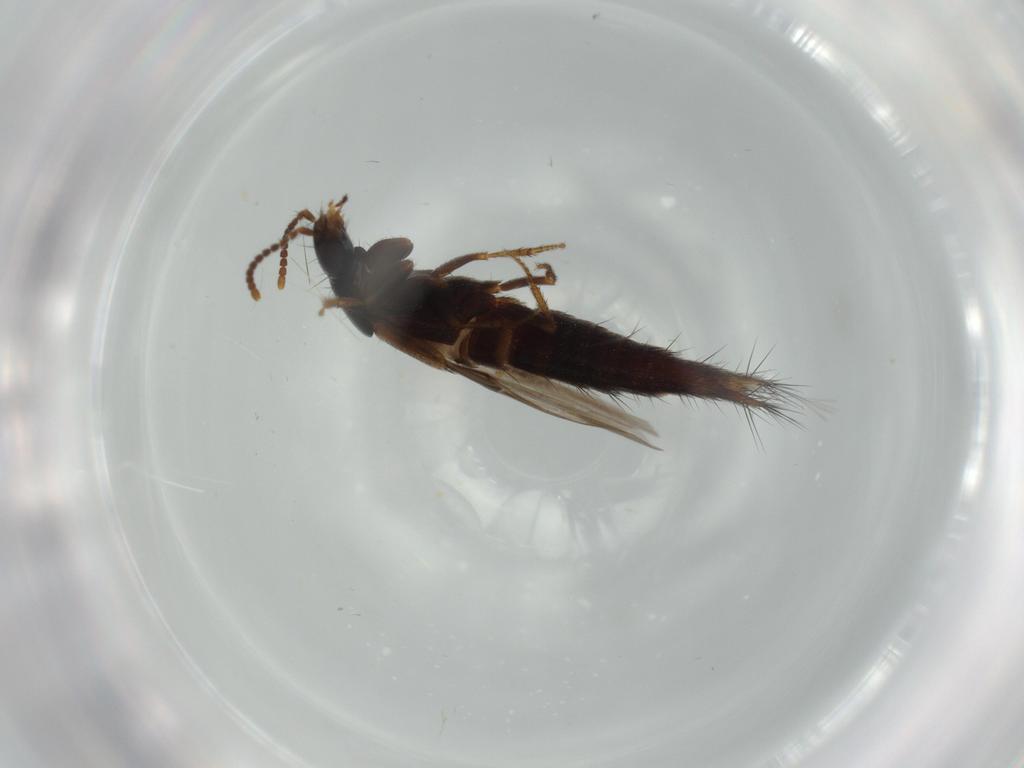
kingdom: Animalia
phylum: Arthropoda
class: Insecta
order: Coleoptera
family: Staphylinidae
